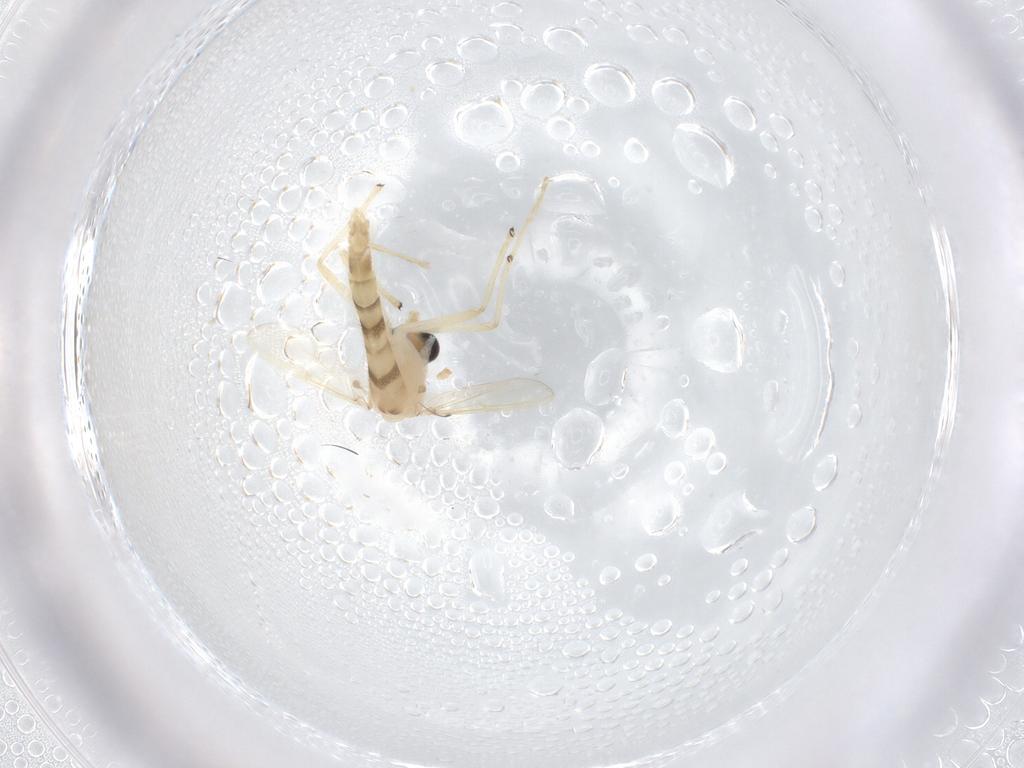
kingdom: Animalia
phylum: Arthropoda
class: Insecta
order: Diptera
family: Chironomidae
